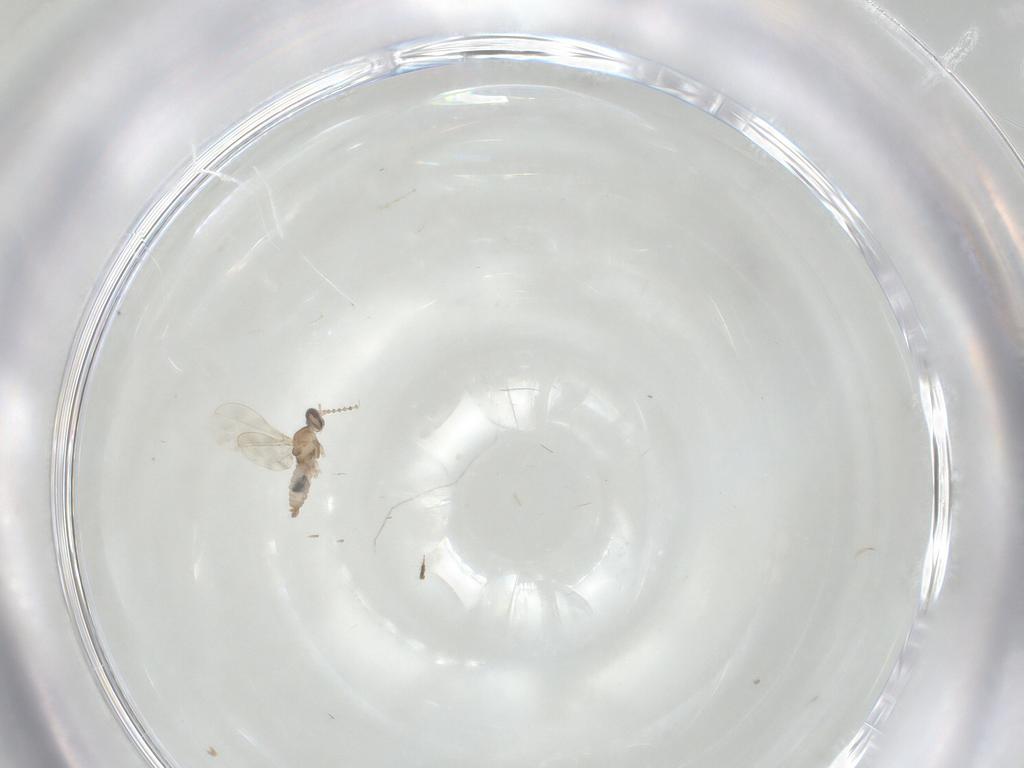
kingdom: Animalia
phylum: Arthropoda
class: Insecta
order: Diptera
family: Cecidomyiidae
